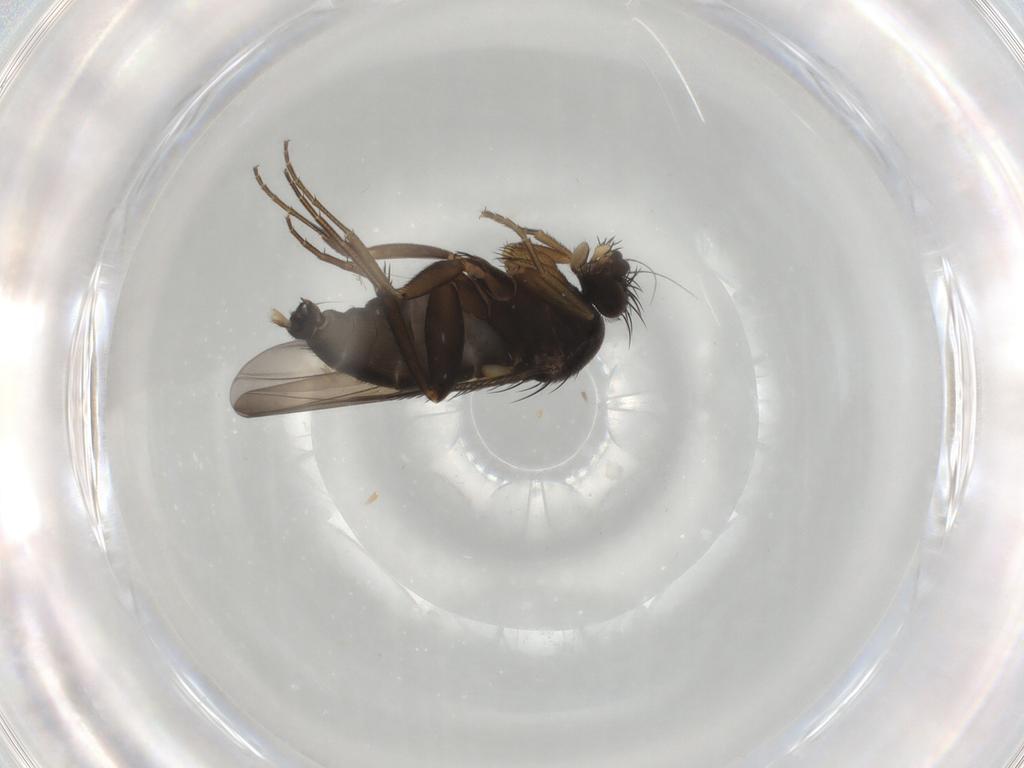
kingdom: Animalia
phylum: Arthropoda
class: Insecta
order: Diptera
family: Phoridae
